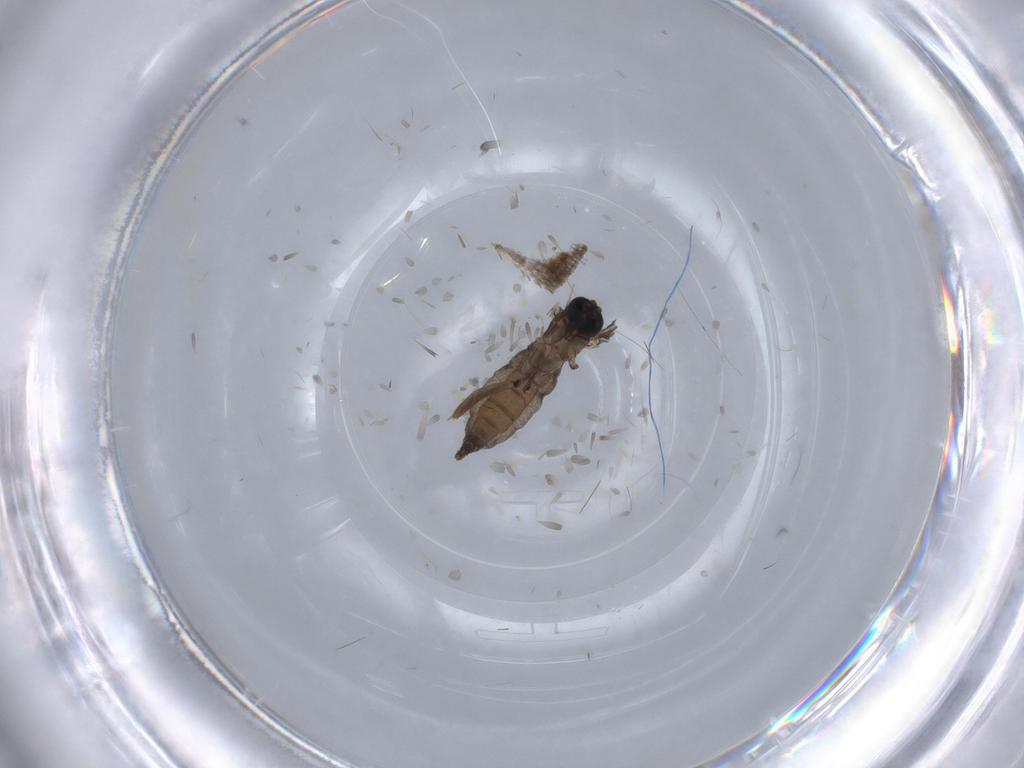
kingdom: Animalia
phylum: Arthropoda
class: Insecta
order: Diptera
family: Sciaridae
